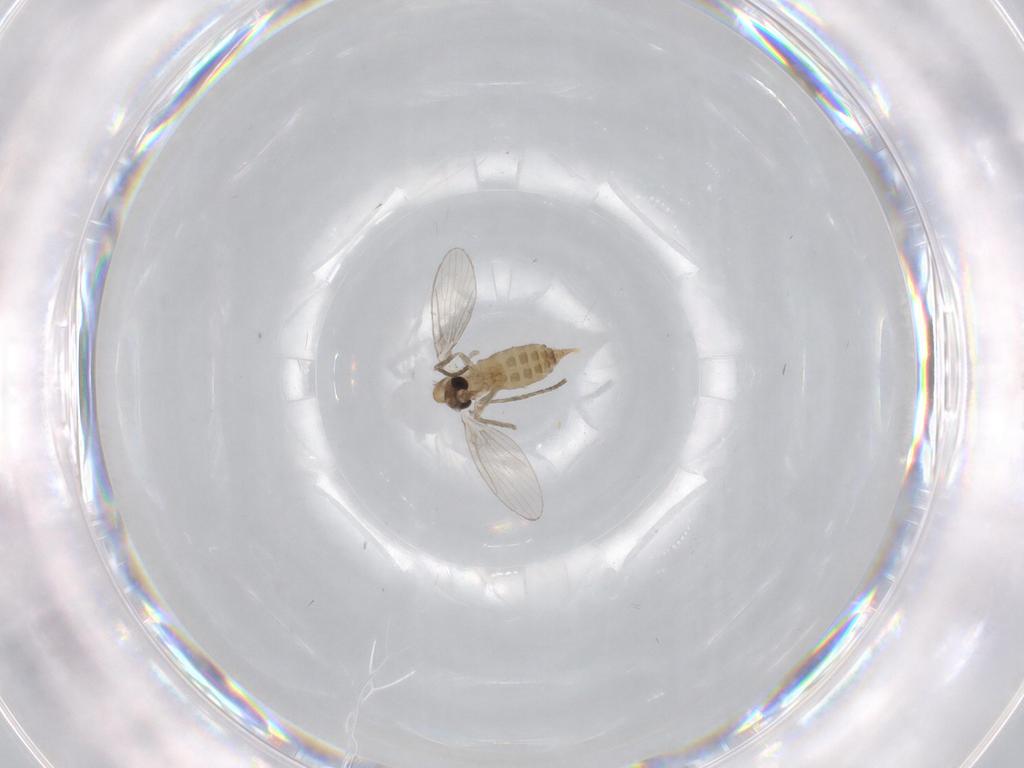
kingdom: Animalia
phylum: Arthropoda
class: Insecta
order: Diptera
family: Psychodidae
